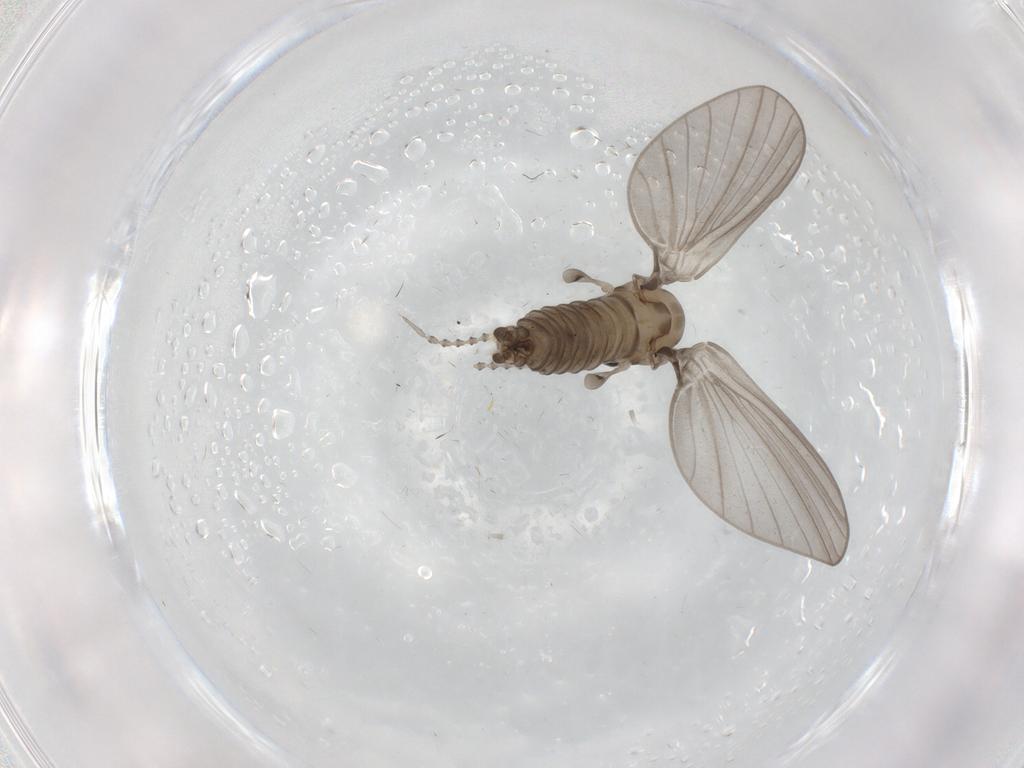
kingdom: Animalia
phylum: Arthropoda
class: Insecta
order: Diptera
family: Psychodidae
